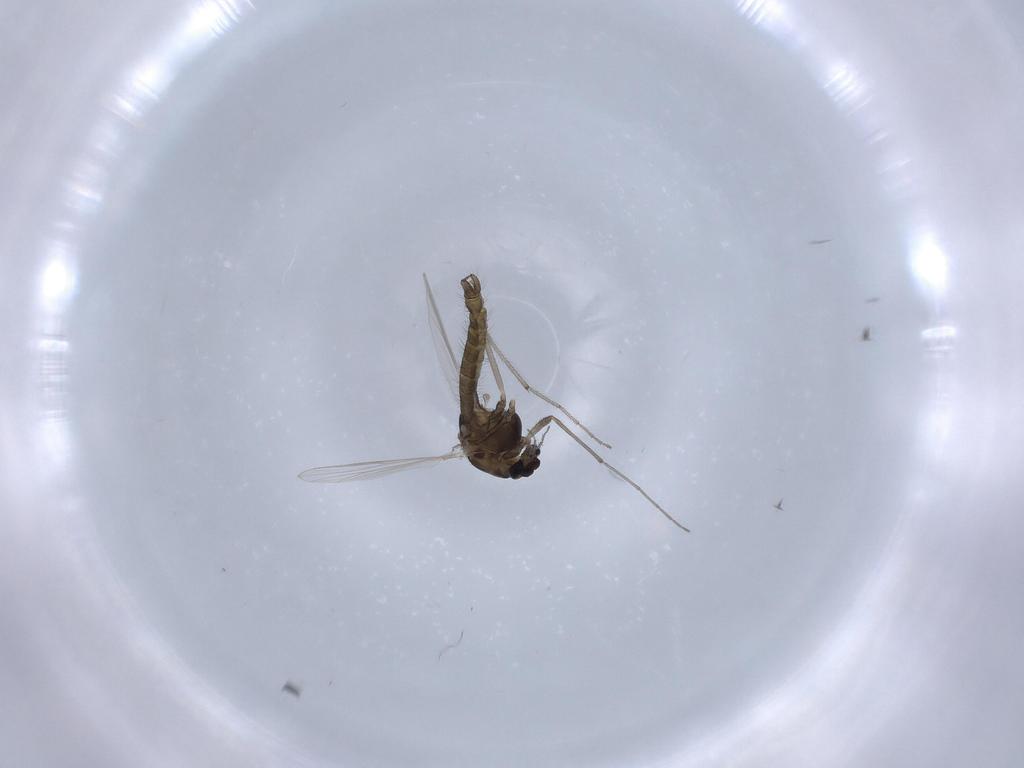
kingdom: Animalia
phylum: Arthropoda
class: Insecta
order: Diptera
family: Chironomidae
